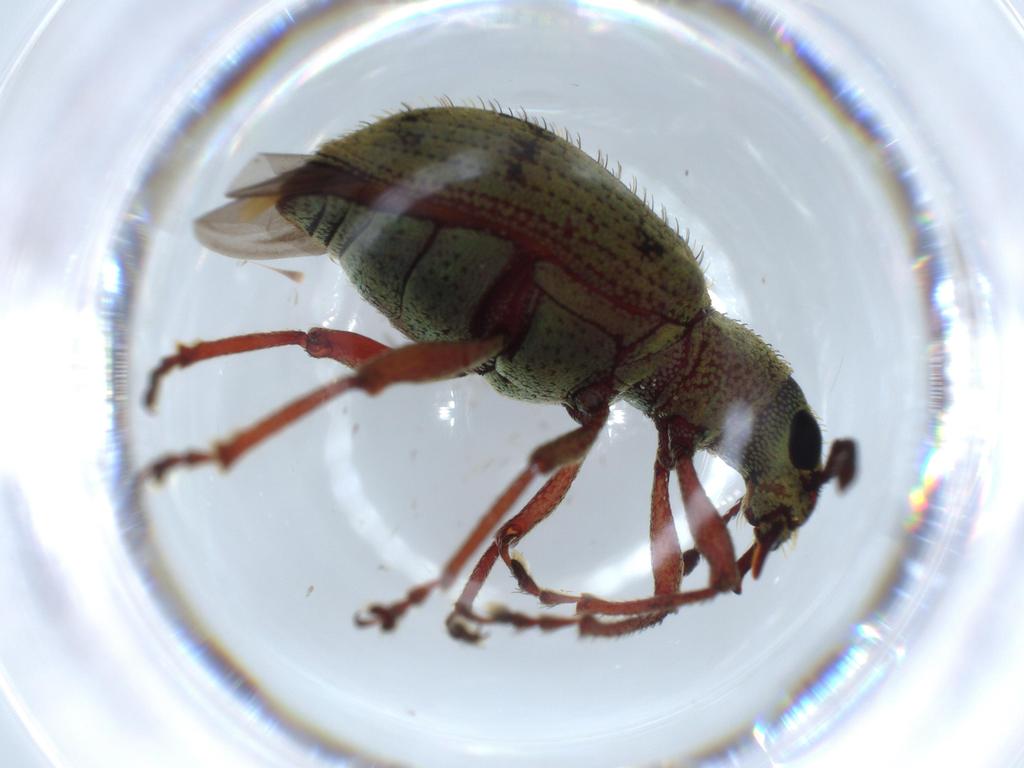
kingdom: Animalia
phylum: Arthropoda
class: Insecta
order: Coleoptera
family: Curculionidae
